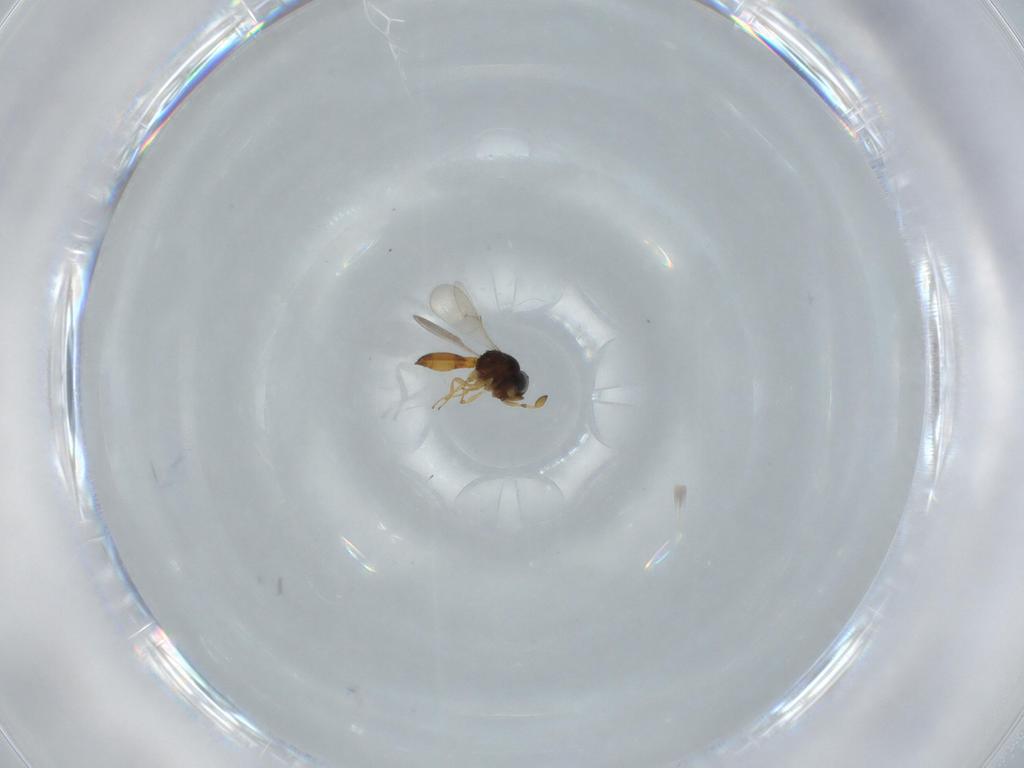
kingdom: Animalia
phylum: Arthropoda
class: Insecta
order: Hymenoptera
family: Scelionidae
